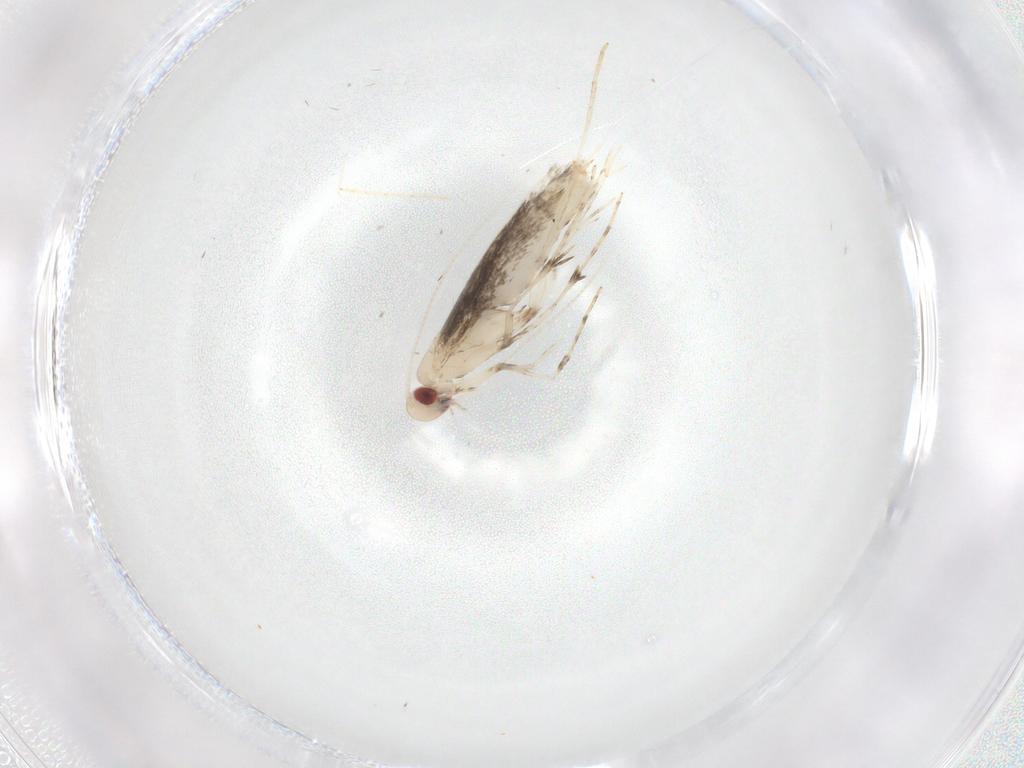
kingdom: Animalia
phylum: Arthropoda
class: Insecta
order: Lepidoptera
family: Gracillariidae
